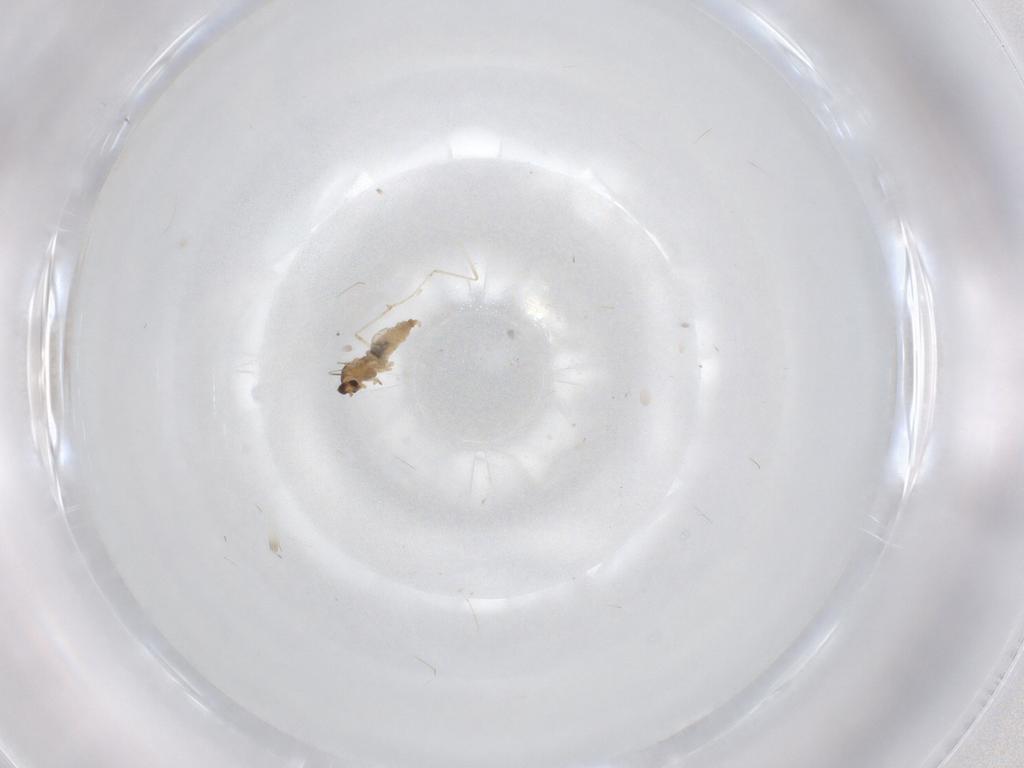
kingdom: Animalia
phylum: Arthropoda
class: Insecta
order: Diptera
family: Cecidomyiidae
